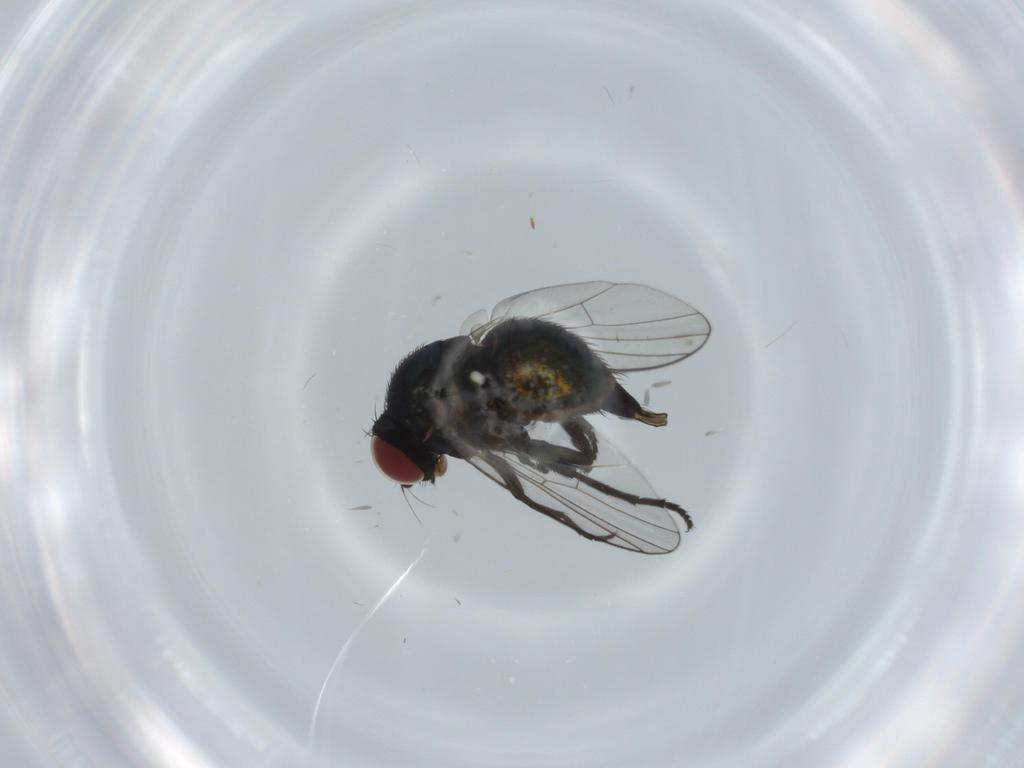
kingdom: Animalia
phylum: Arthropoda
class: Insecta
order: Diptera
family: Agromyzidae
